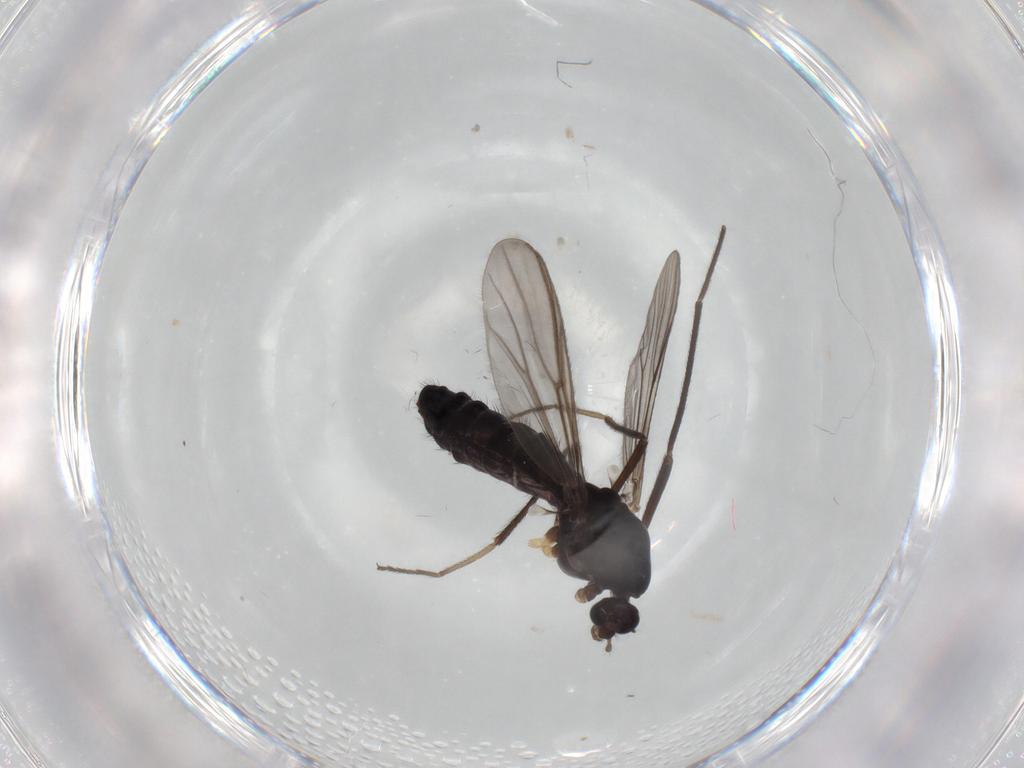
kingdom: Animalia
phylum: Arthropoda
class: Insecta
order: Diptera
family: Chironomidae
